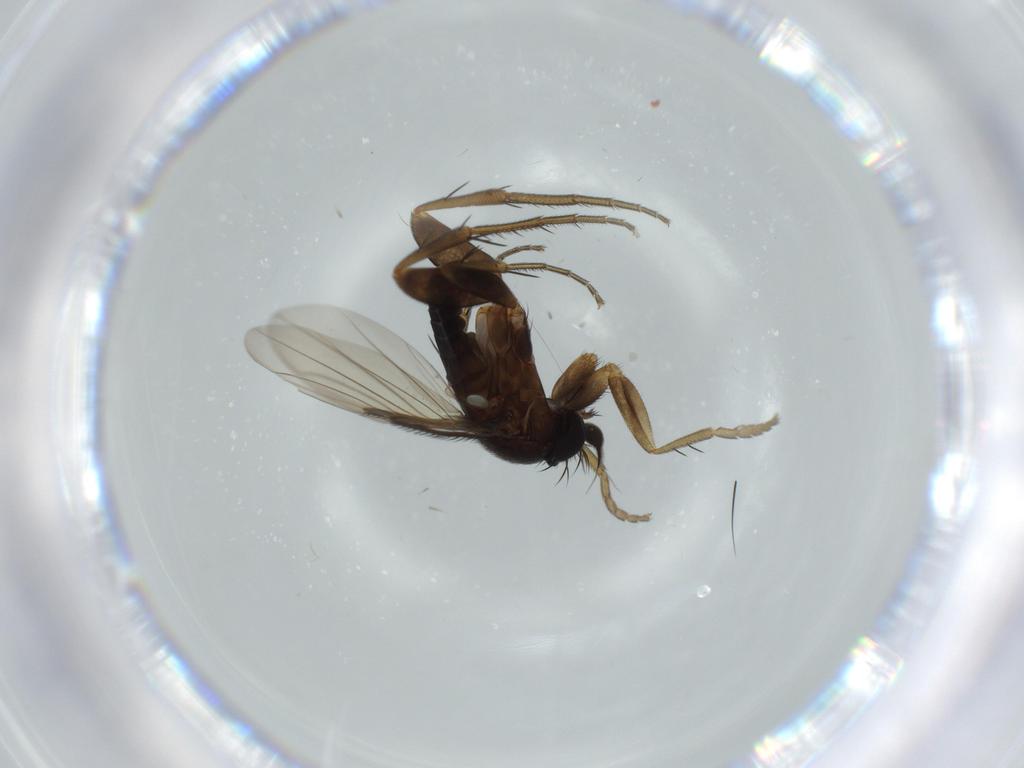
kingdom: Animalia
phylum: Arthropoda
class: Insecta
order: Diptera
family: Phoridae
